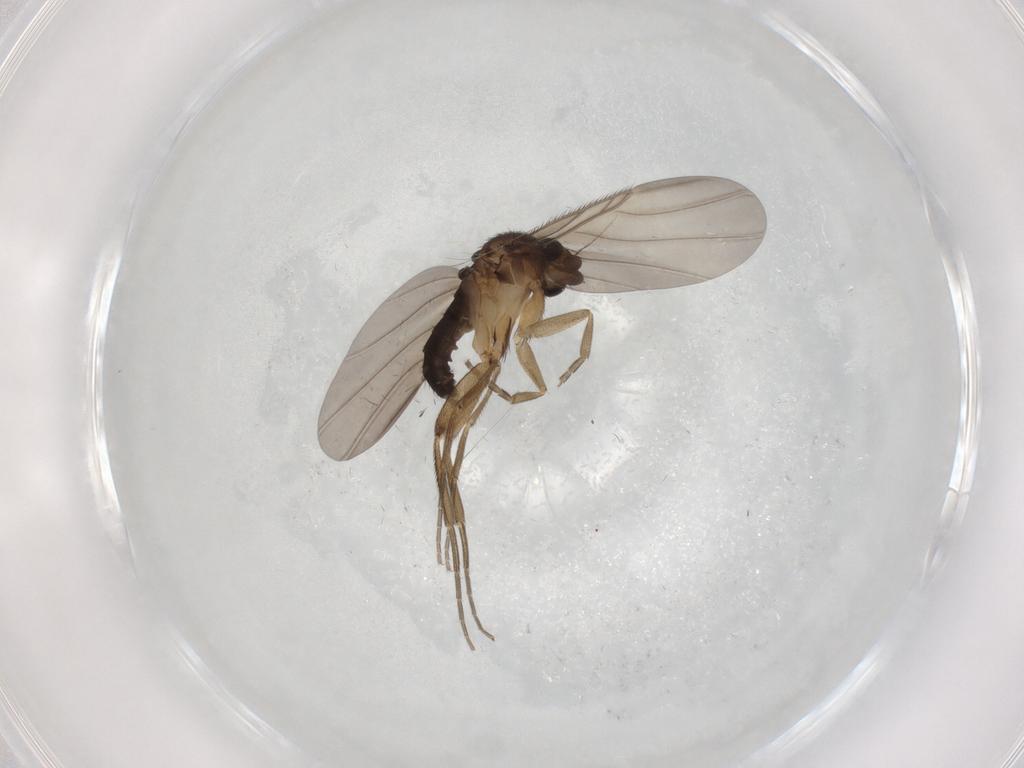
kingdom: Animalia
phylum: Arthropoda
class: Insecta
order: Diptera
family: Phoridae
